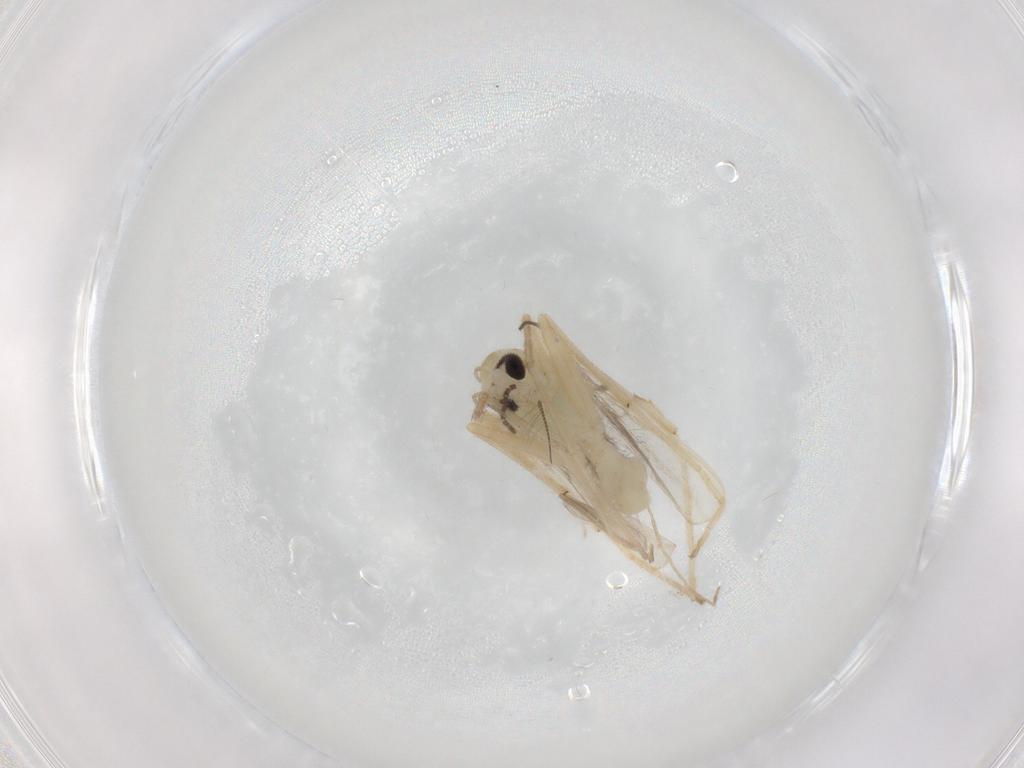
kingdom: Animalia
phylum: Arthropoda
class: Insecta
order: Diptera
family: Chironomidae
